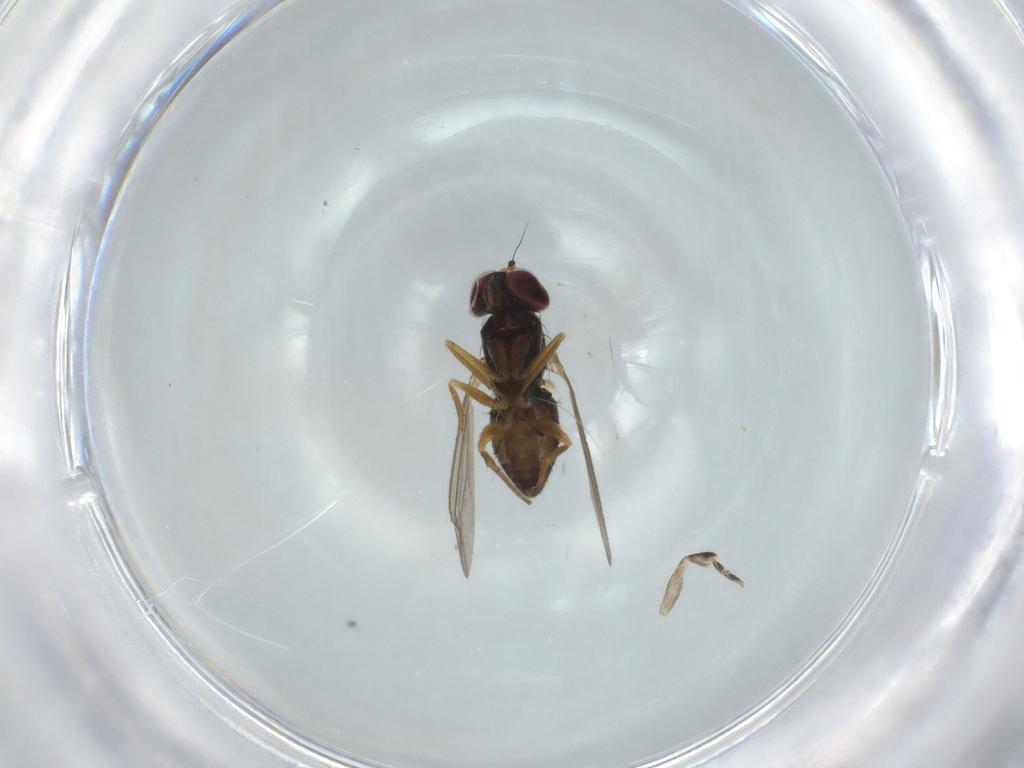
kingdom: Animalia
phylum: Arthropoda
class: Insecta
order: Diptera
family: Dolichopodidae
